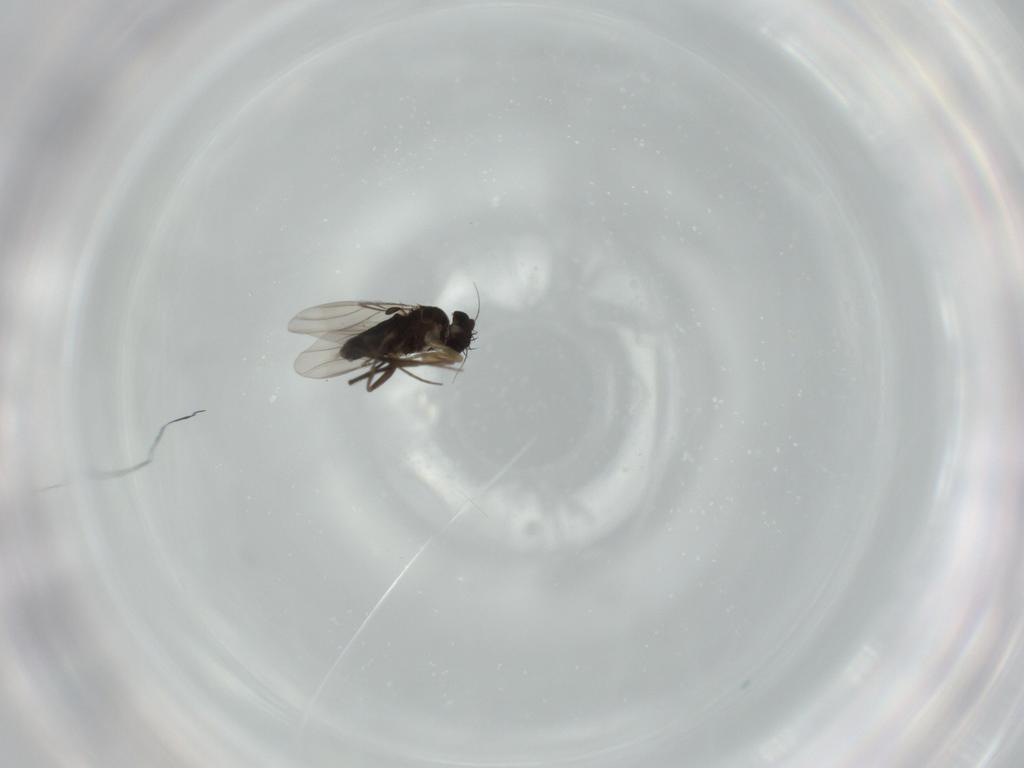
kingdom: Animalia
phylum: Arthropoda
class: Insecta
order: Diptera
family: Phoridae
